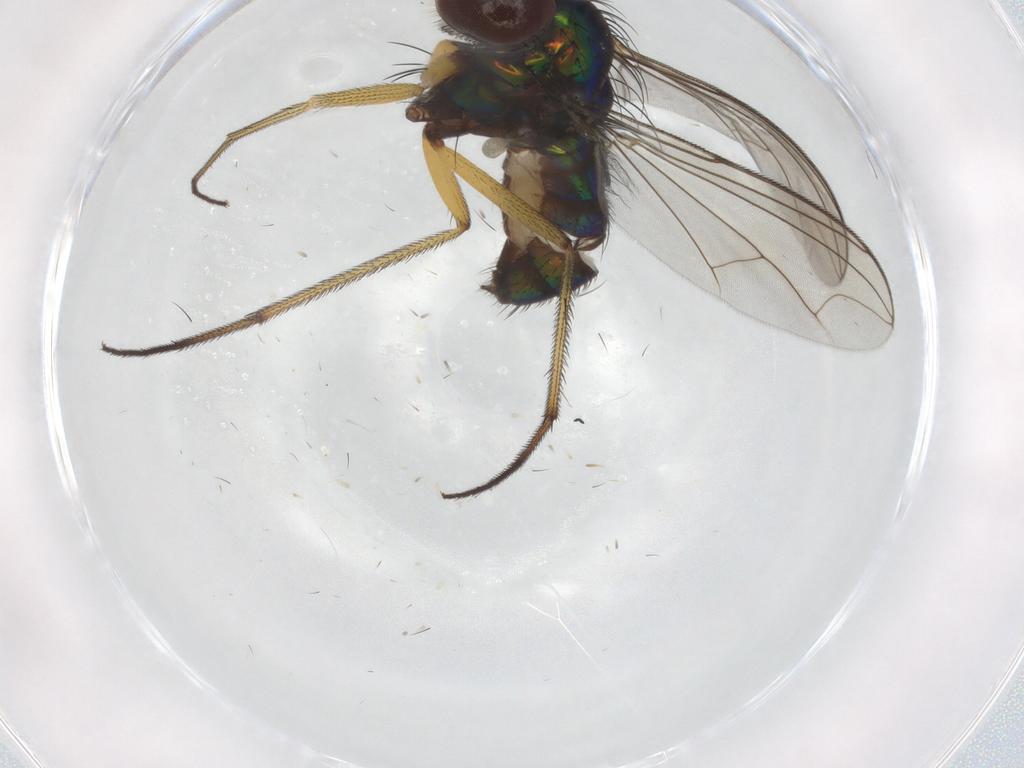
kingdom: Animalia
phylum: Arthropoda
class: Insecta
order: Diptera
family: Dolichopodidae
